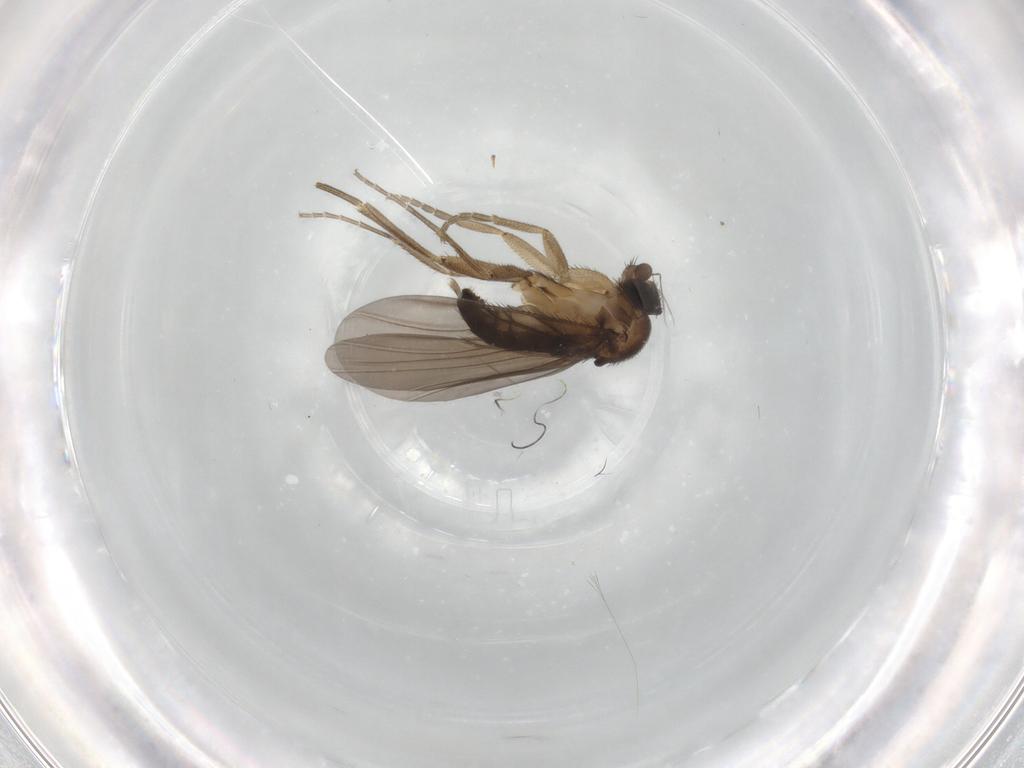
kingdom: Animalia
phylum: Arthropoda
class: Insecta
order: Diptera
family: Phoridae
